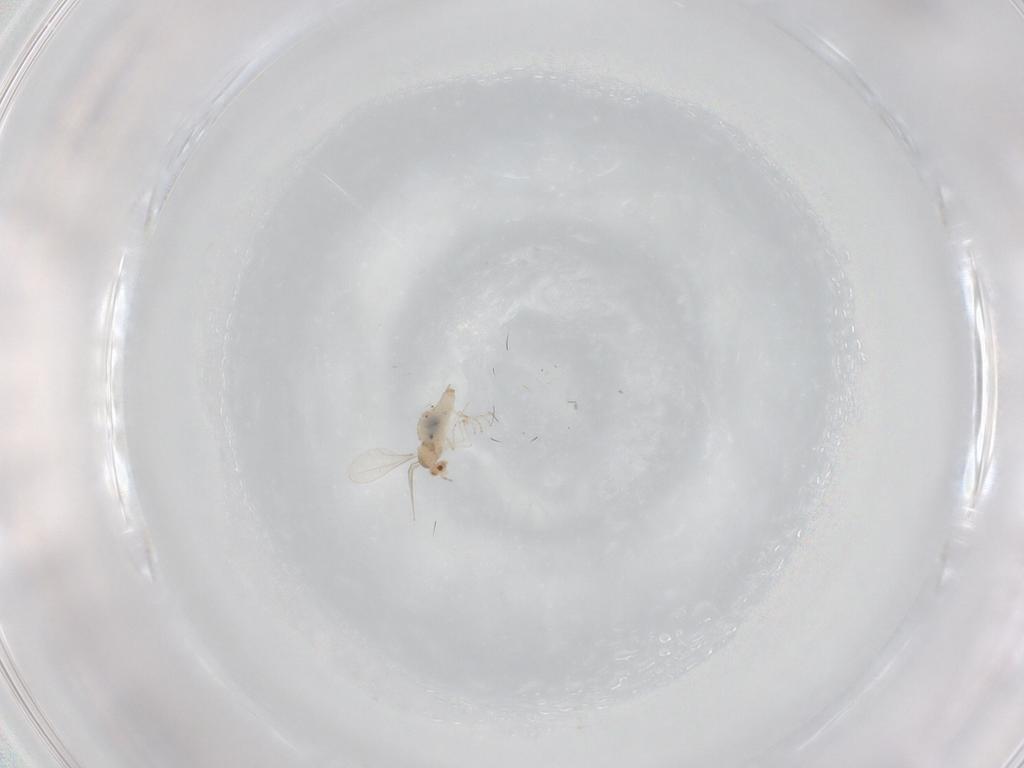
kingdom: Animalia
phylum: Arthropoda
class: Insecta
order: Diptera
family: Cecidomyiidae
